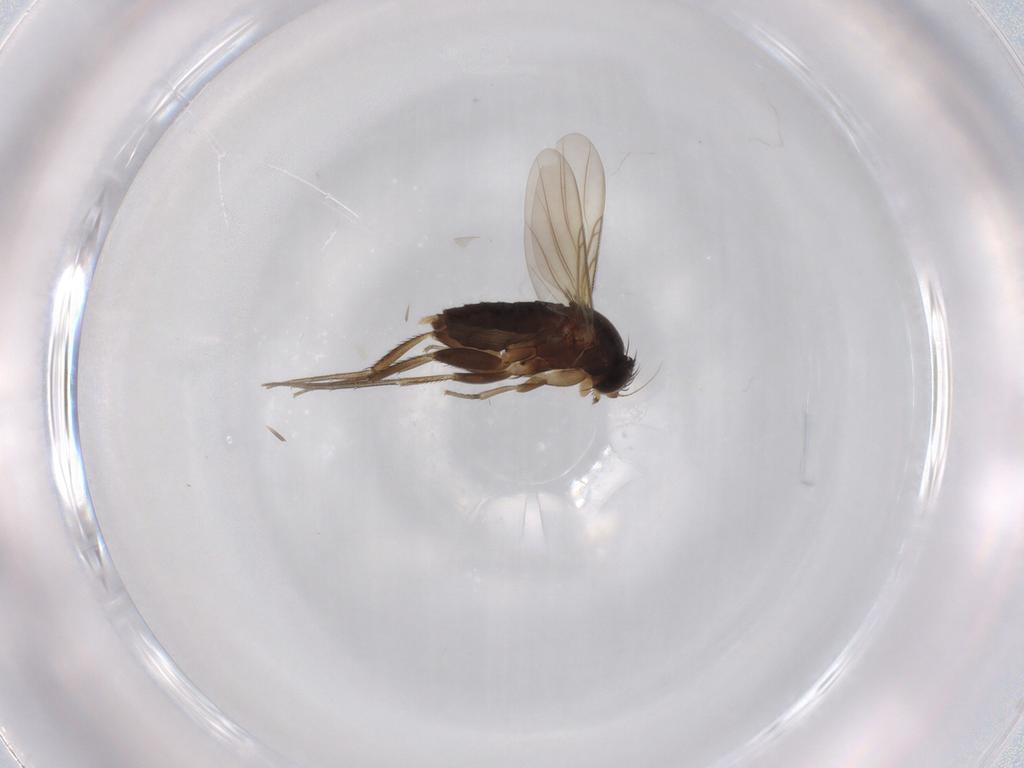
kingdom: Animalia
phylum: Arthropoda
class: Insecta
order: Diptera
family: Phoridae
